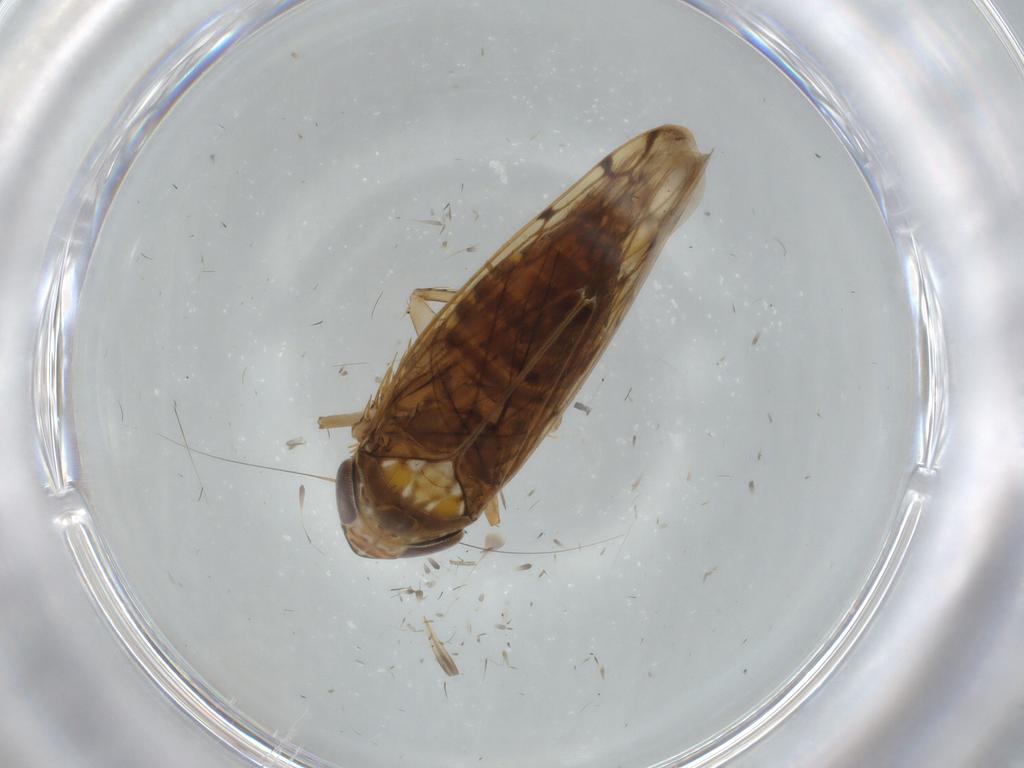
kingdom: Animalia
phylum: Arthropoda
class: Insecta
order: Hemiptera
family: Cicadellidae
